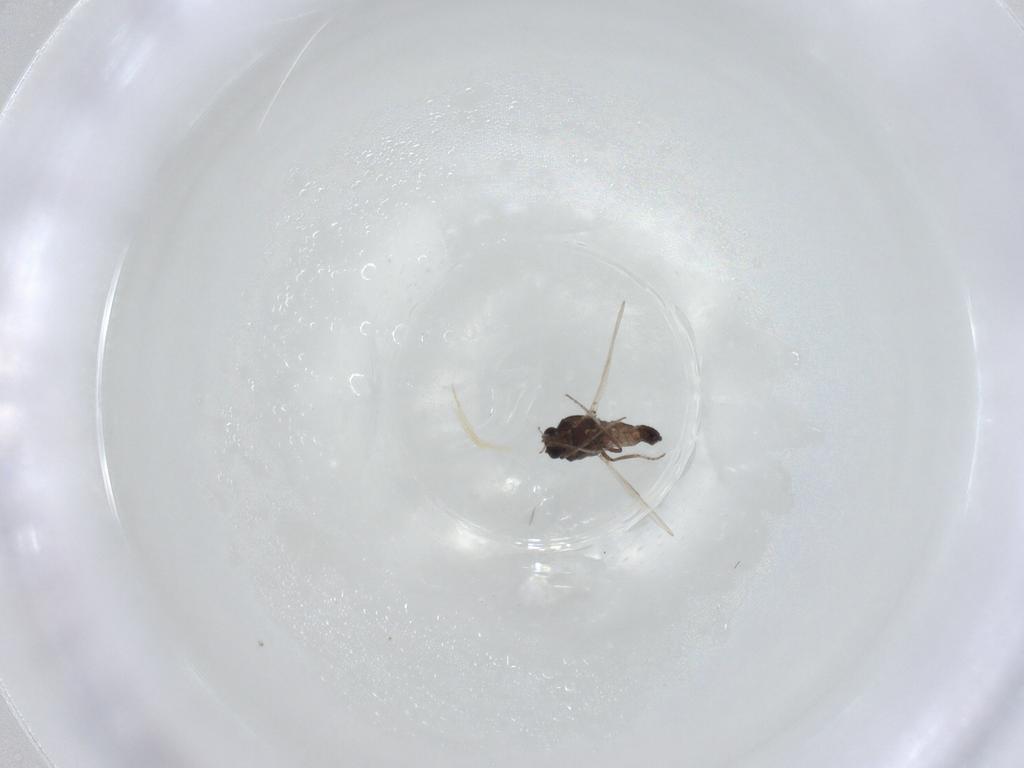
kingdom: Animalia
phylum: Arthropoda
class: Insecta
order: Diptera
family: Ceratopogonidae
